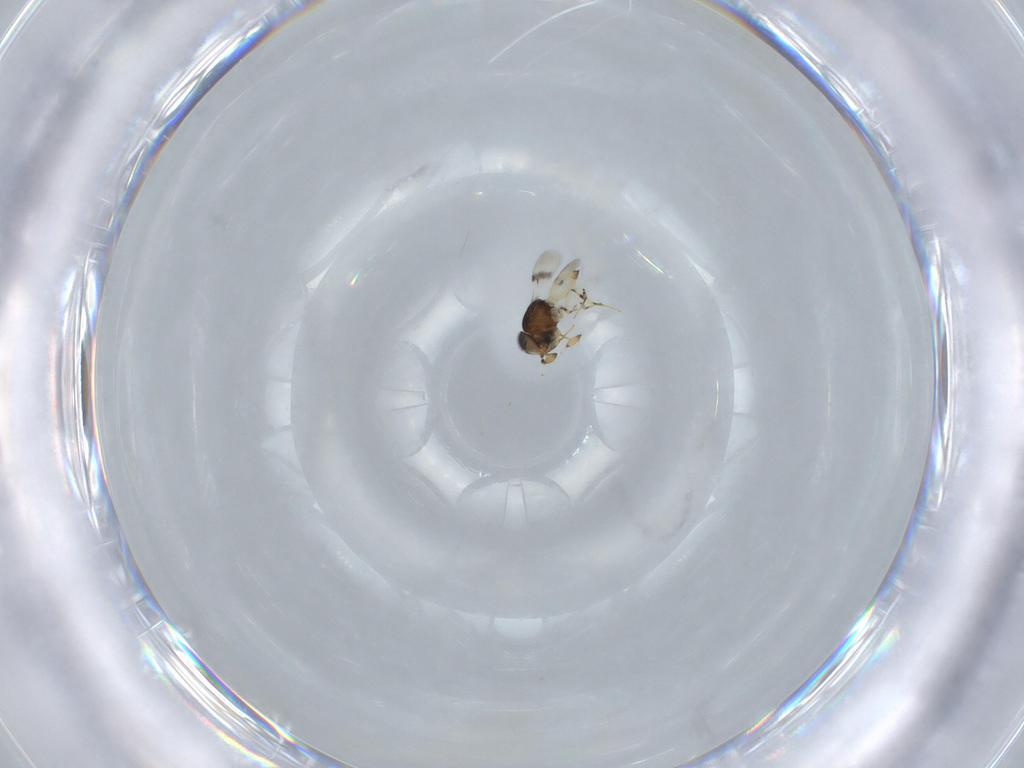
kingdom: Animalia
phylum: Arthropoda
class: Insecta
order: Hymenoptera
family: Scelionidae
